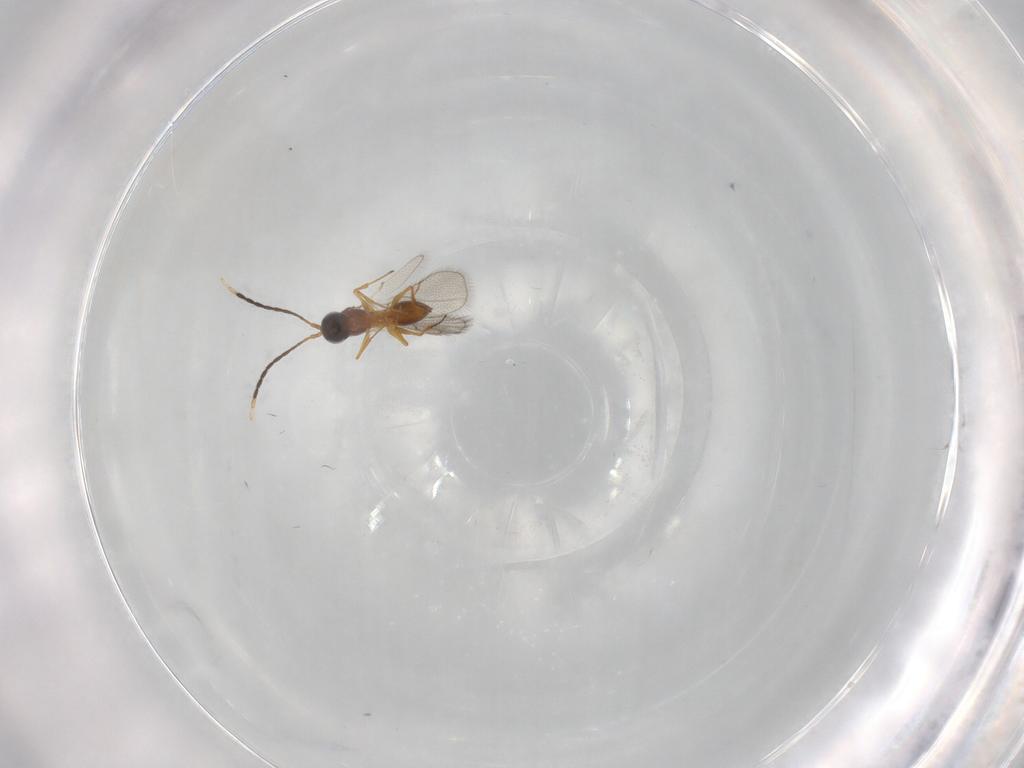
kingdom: Animalia
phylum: Arthropoda
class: Insecta
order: Hymenoptera
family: Figitidae
